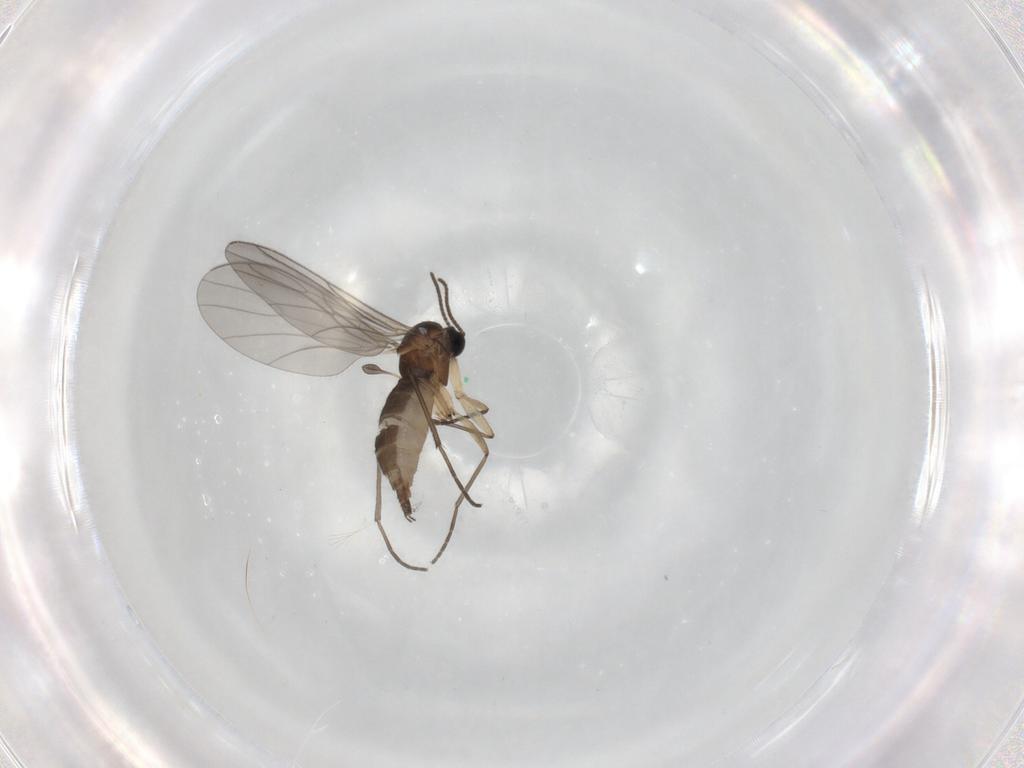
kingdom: Animalia
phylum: Arthropoda
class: Insecta
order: Diptera
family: Sciaridae
